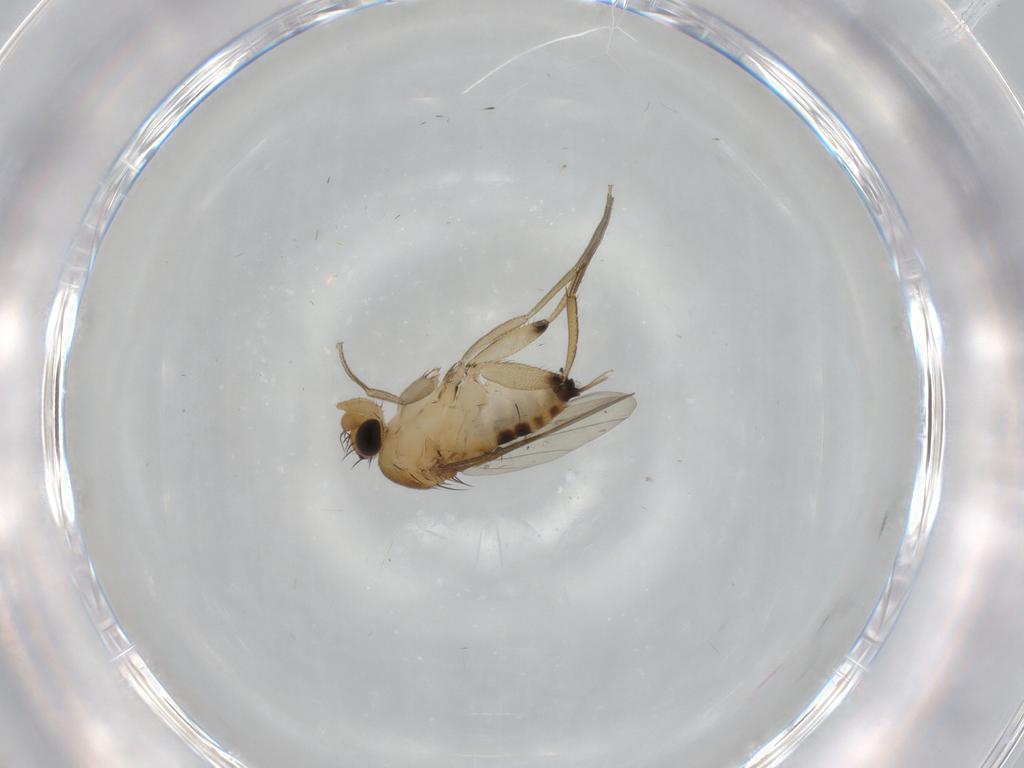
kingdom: Animalia
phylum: Arthropoda
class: Insecta
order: Diptera
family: Phoridae
